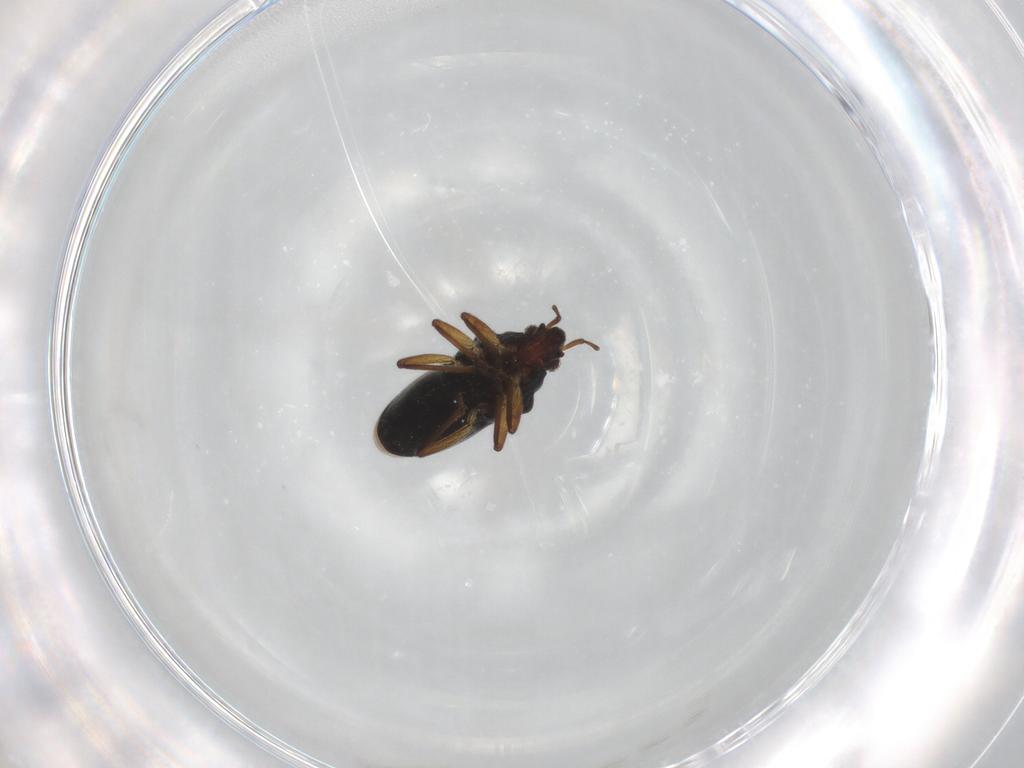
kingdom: Animalia
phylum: Arthropoda
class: Insecta
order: Hemiptera
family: Hebridae
